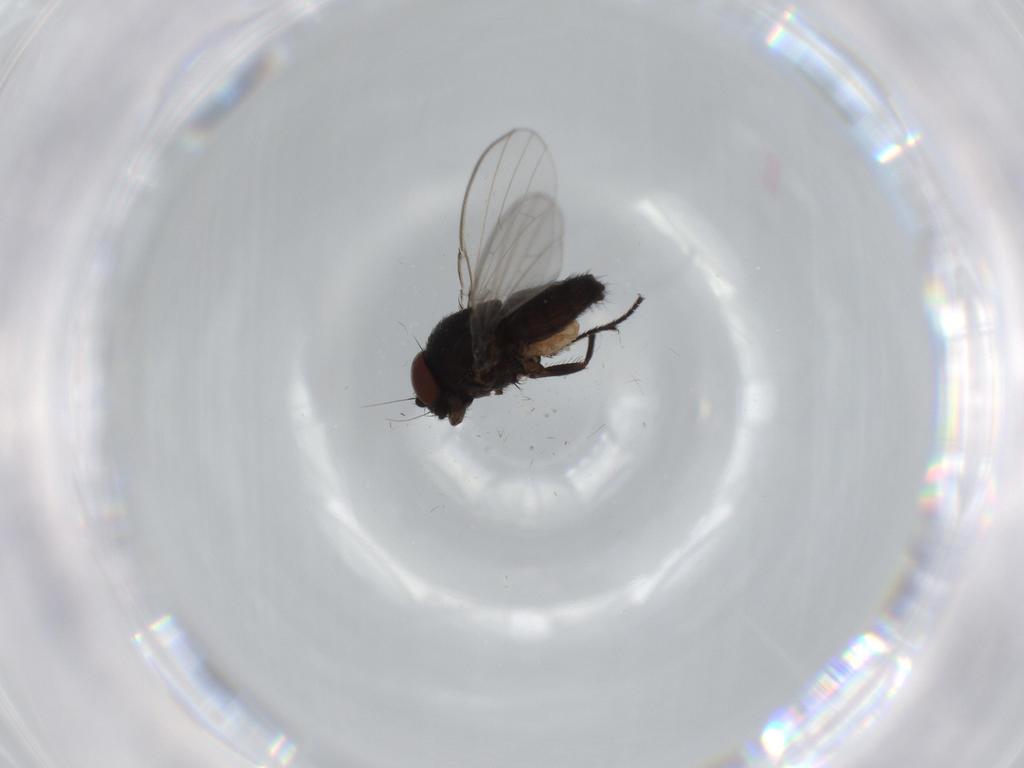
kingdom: Animalia
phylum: Arthropoda
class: Insecta
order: Diptera
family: Milichiidae
